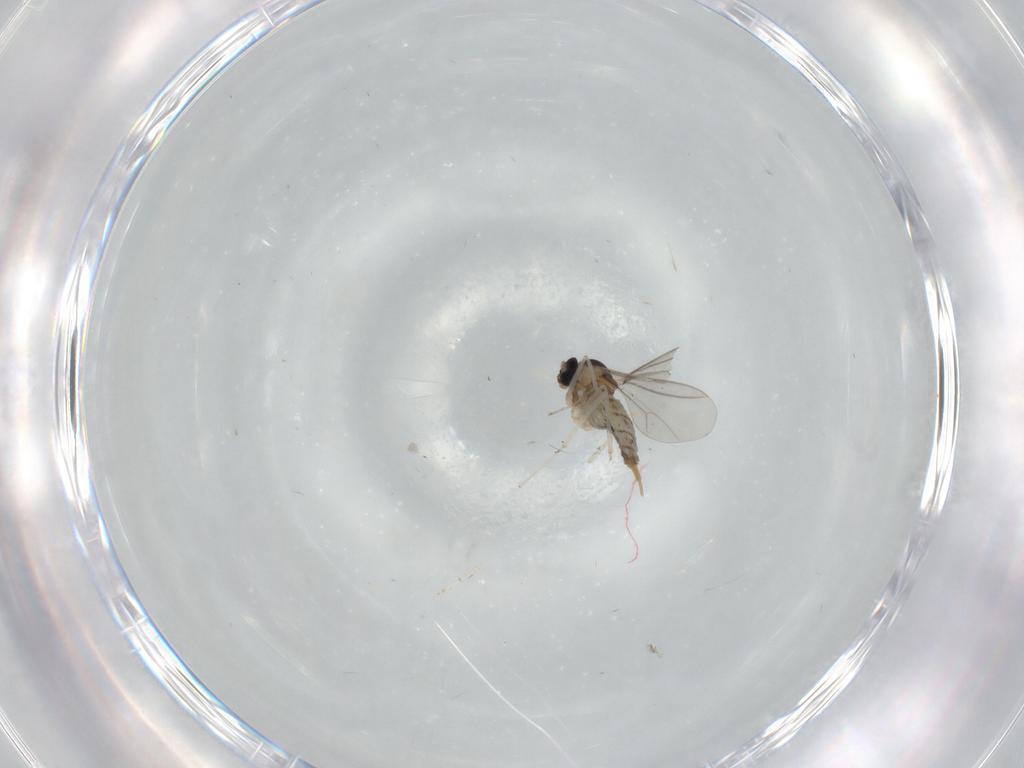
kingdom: Animalia
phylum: Arthropoda
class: Insecta
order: Diptera
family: Cecidomyiidae
